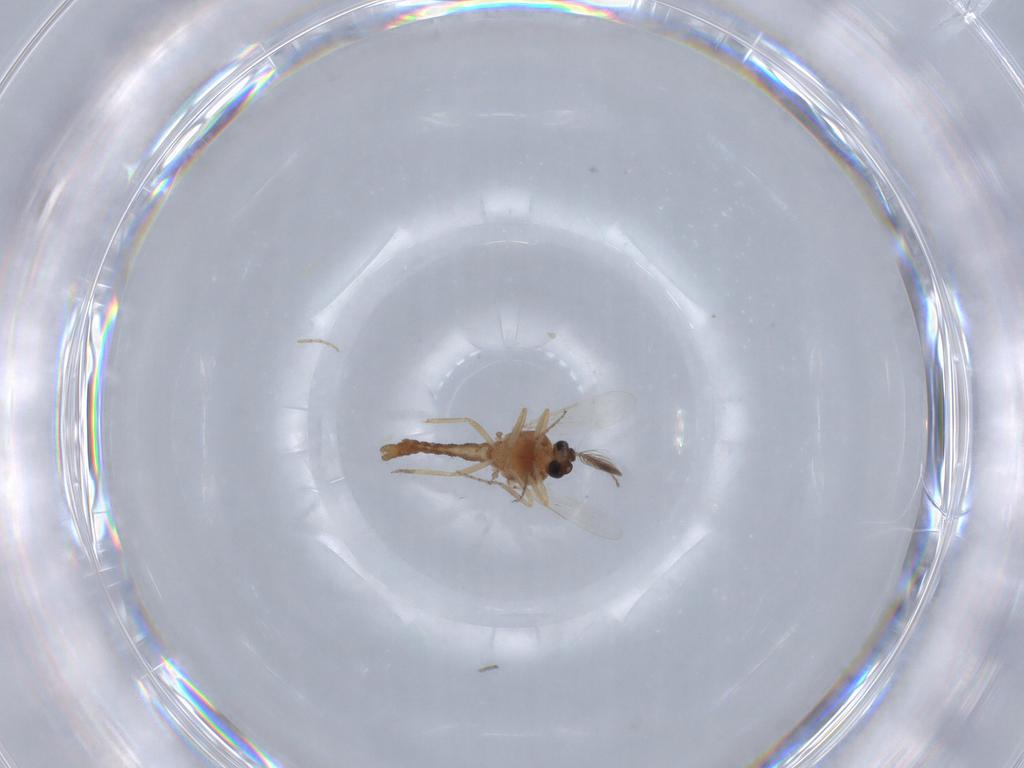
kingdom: Animalia
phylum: Arthropoda
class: Insecta
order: Diptera
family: Ceratopogonidae
